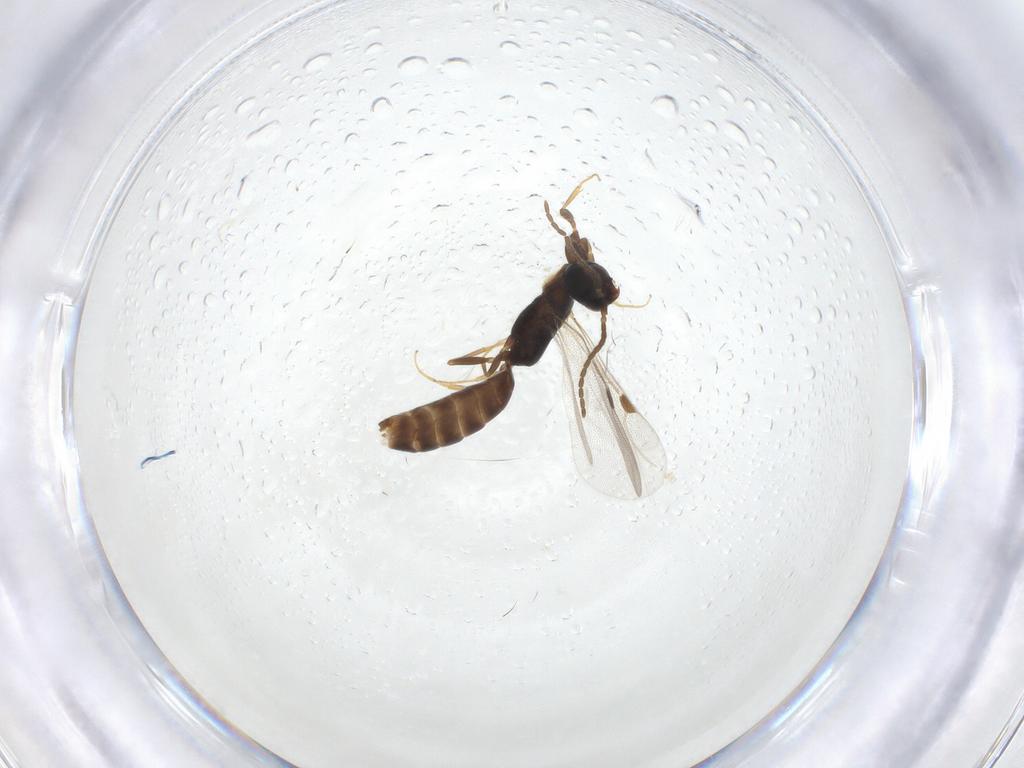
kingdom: Animalia
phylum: Arthropoda
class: Insecta
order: Hymenoptera
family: Bethylidae
